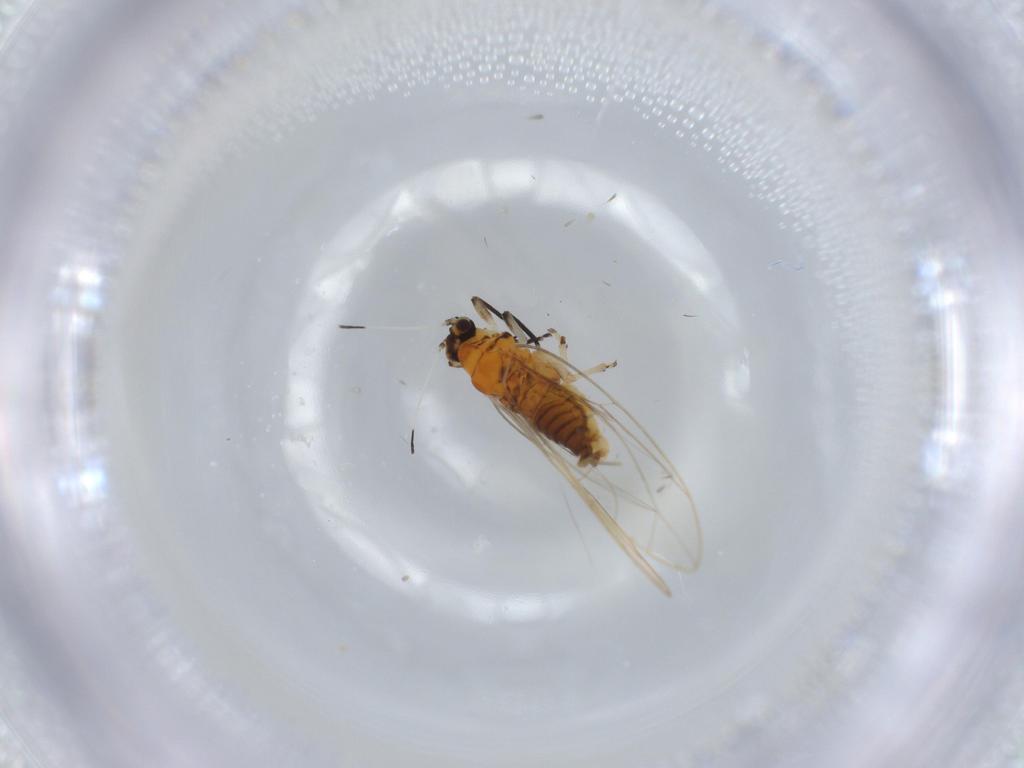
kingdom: Animalia
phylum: Arthropoda
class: Insecta
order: Hemiptera
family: Triozidae
